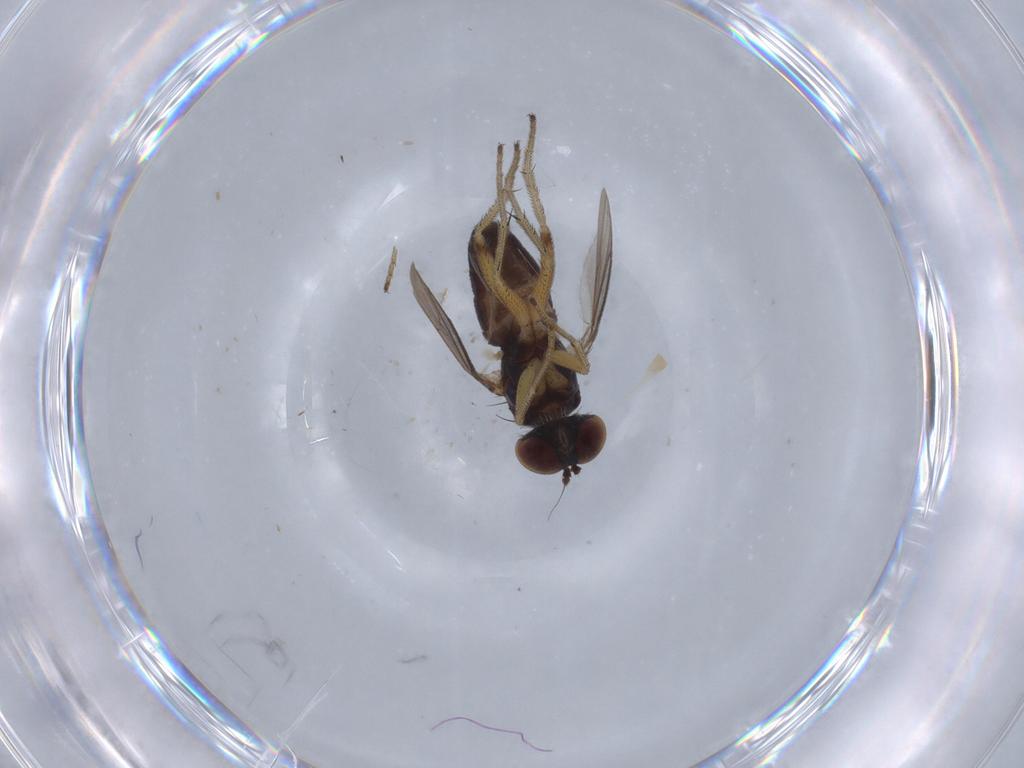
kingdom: Animalia
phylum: Arthropoda
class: Insecta
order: Diptera
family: Dolichopodidae
